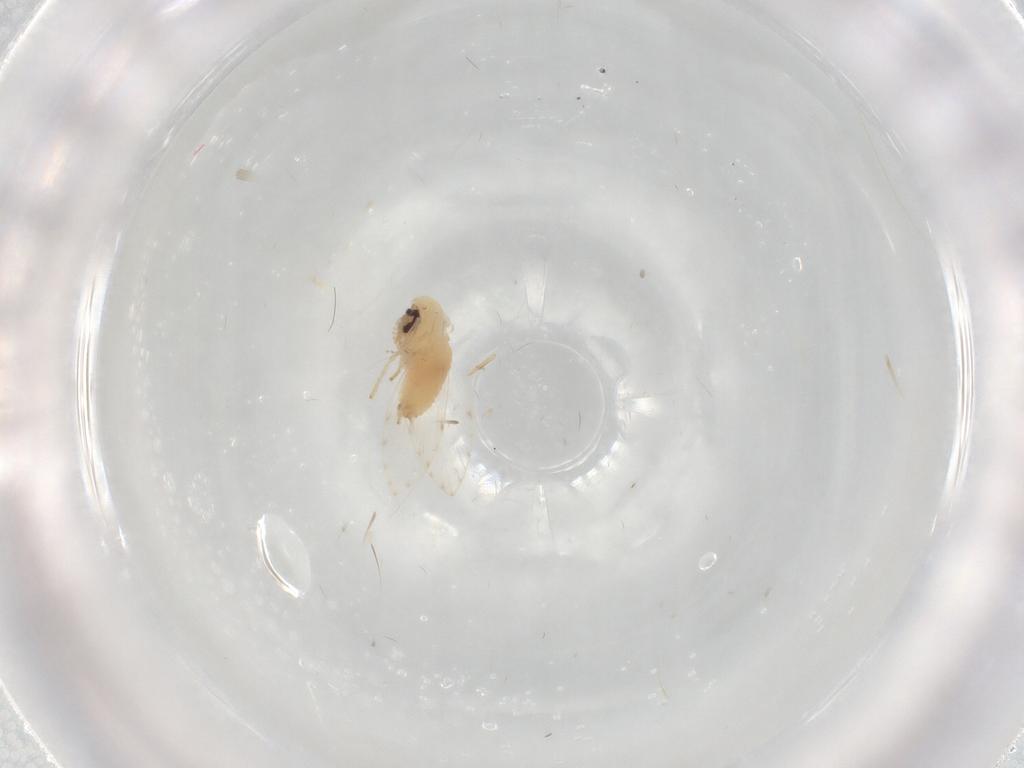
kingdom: Animalia
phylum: Arthropoda
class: Insecta
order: Diptera
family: Psychodidae
